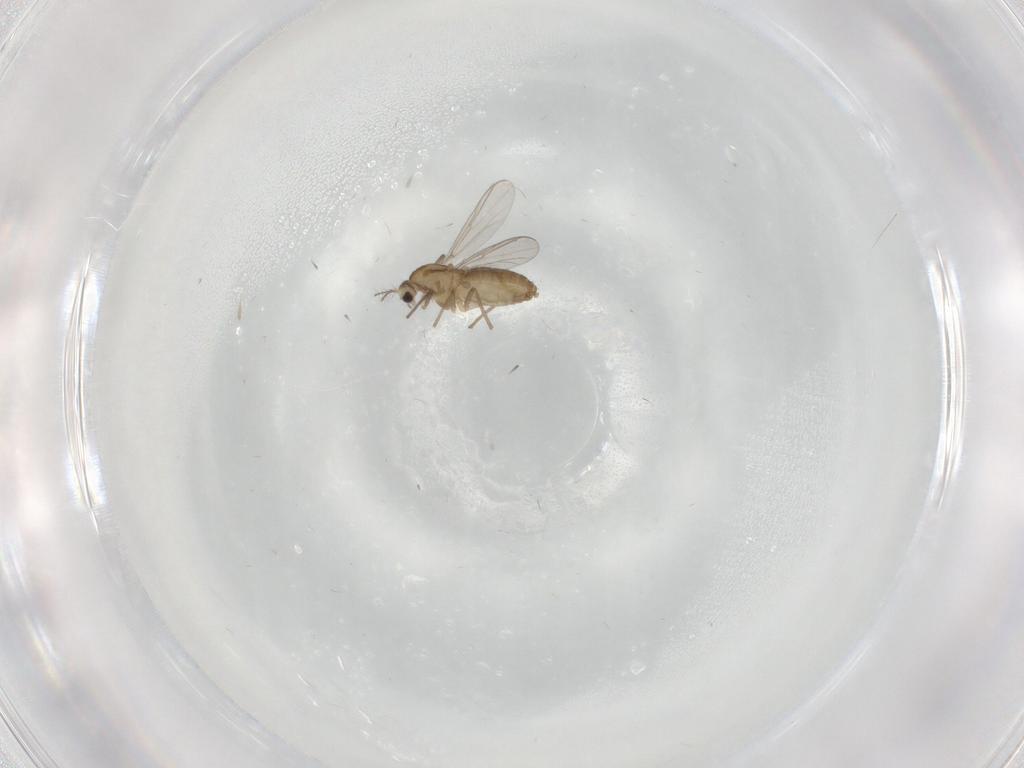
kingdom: Animalia
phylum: Arthropoda
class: Insecta
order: Diptera
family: Chironomidae
